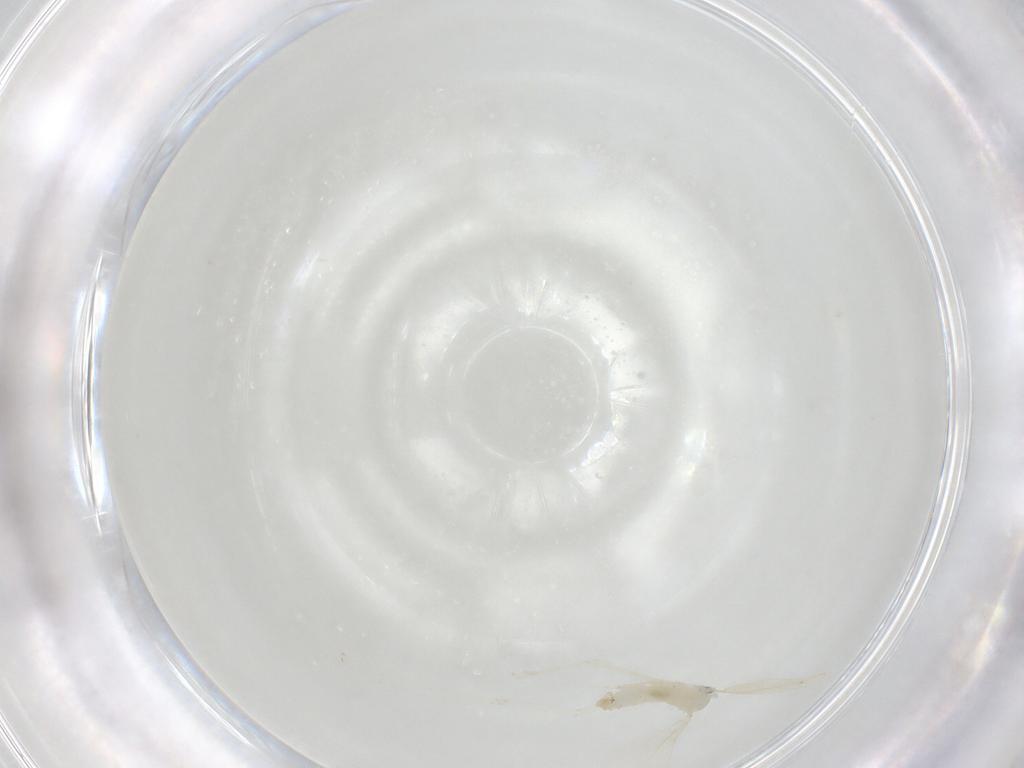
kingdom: Animalia
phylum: Arthropoda
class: Insecta
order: Diptera
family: Cecidomyiidae
